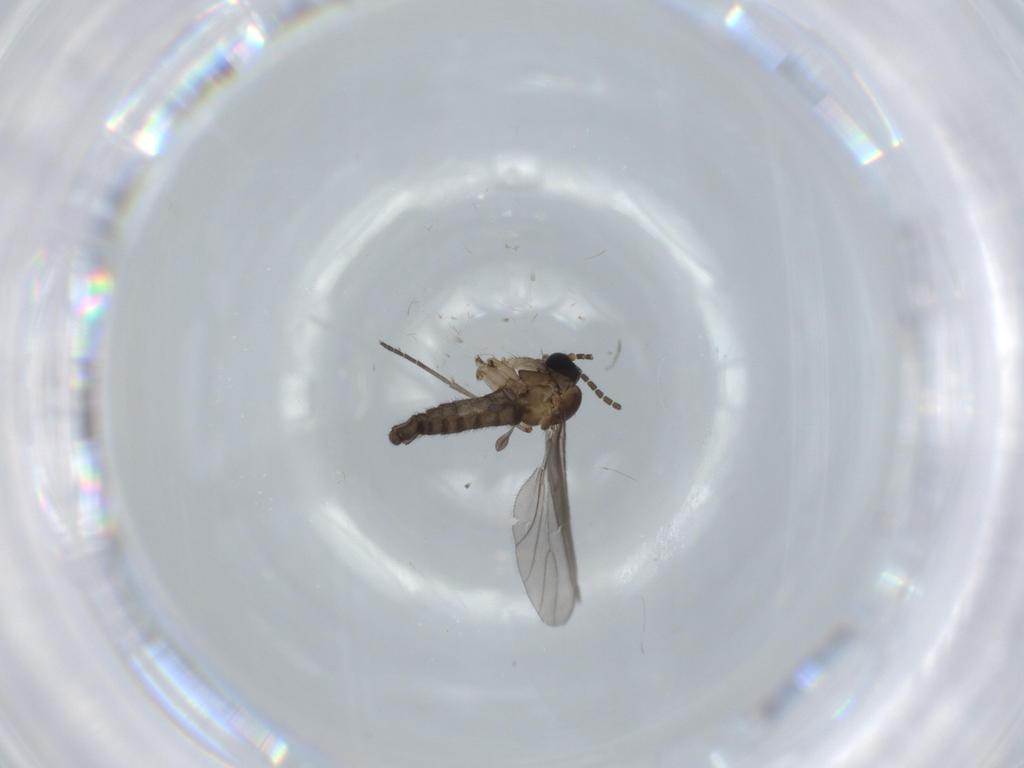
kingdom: Animalia
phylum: Arthropoda
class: Insecta
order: Diptera
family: Sciaridae
